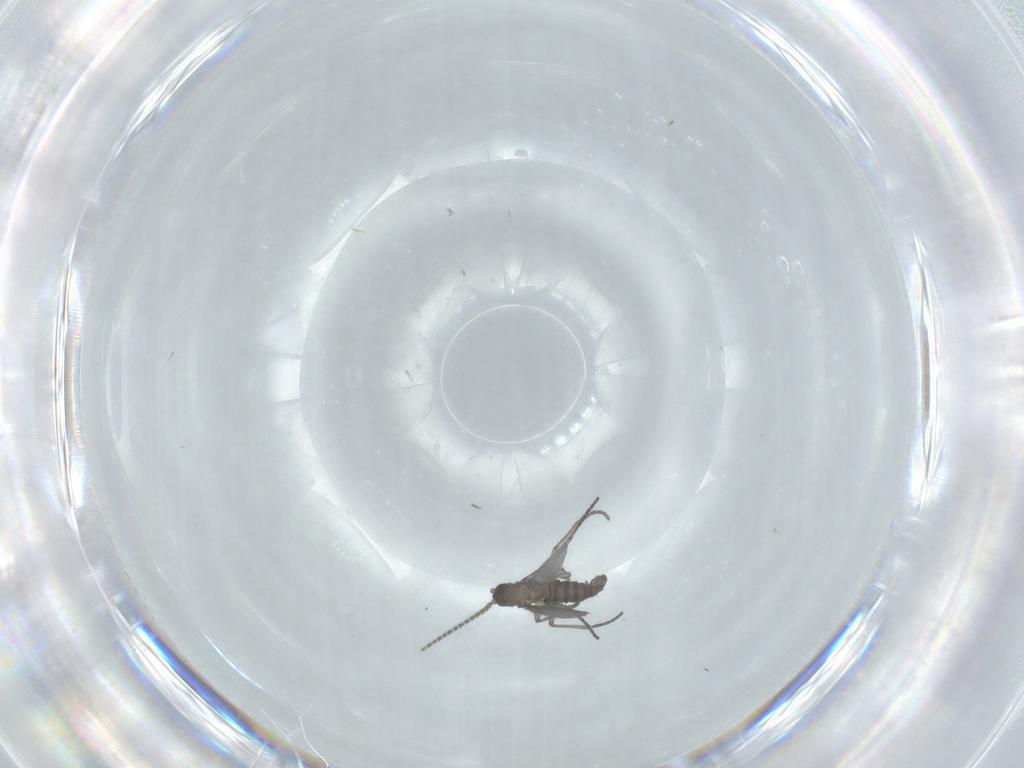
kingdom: Animalia
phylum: Arthropoda
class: Insecta
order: Diptera
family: Sciaridae
